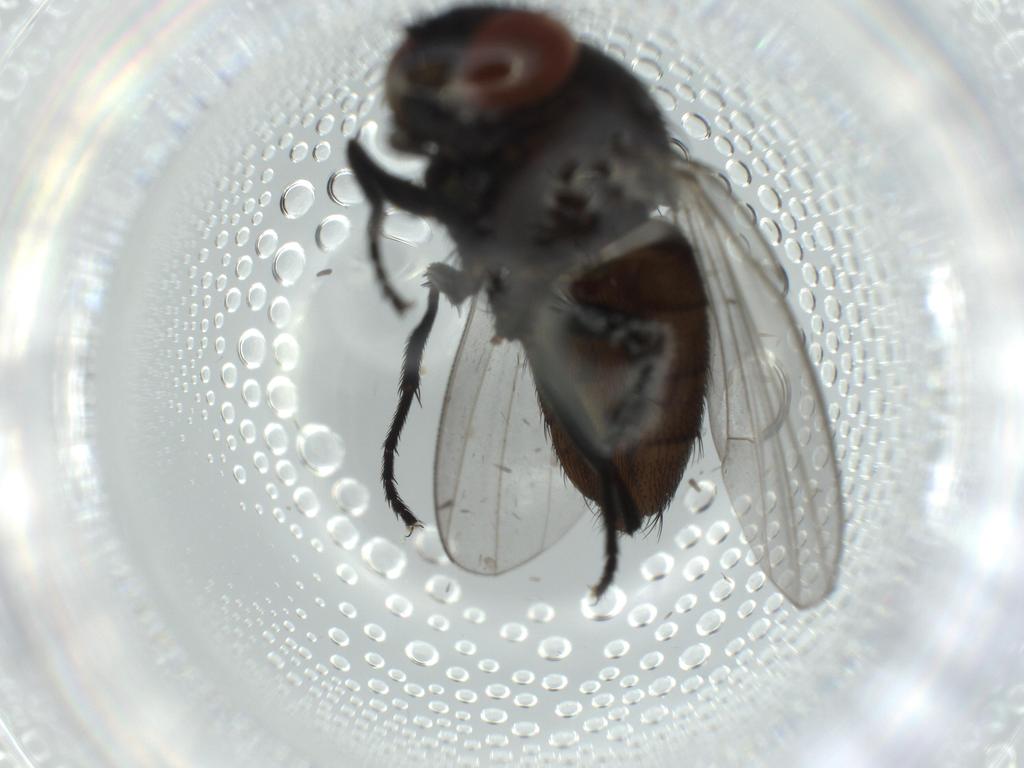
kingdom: Animalia
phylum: Arthropoda
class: Insecta
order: Diptera
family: Milichiidae
